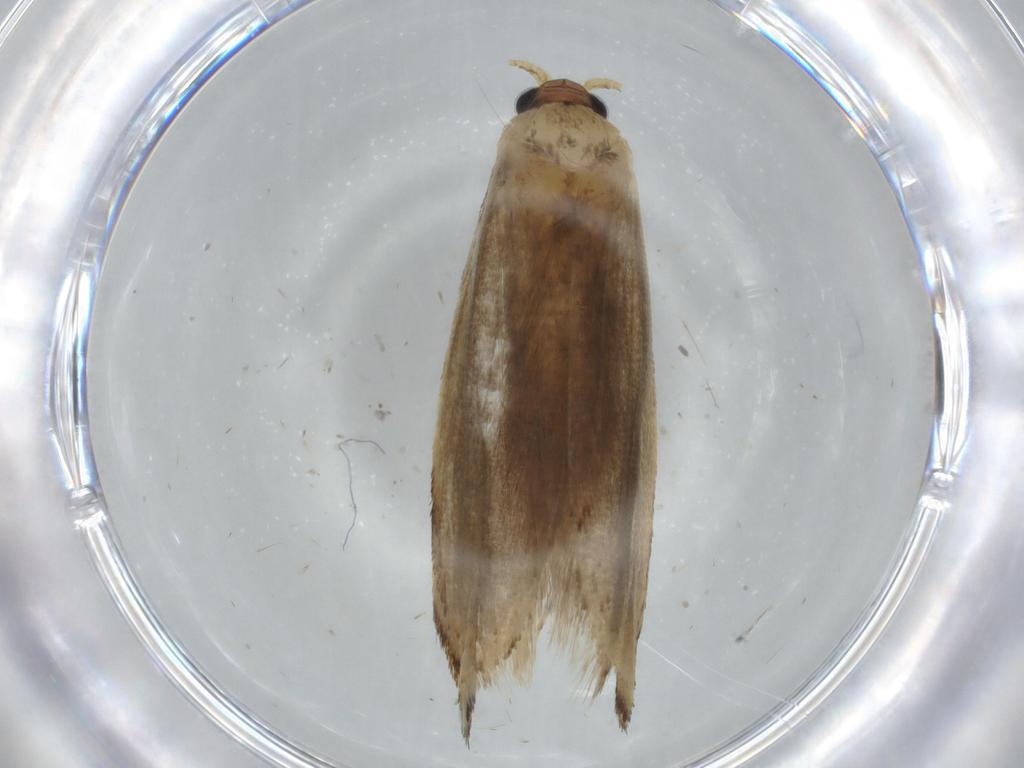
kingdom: Animalia
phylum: Arthropoda
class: Insecta
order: Lepidoptera
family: Tineidae
